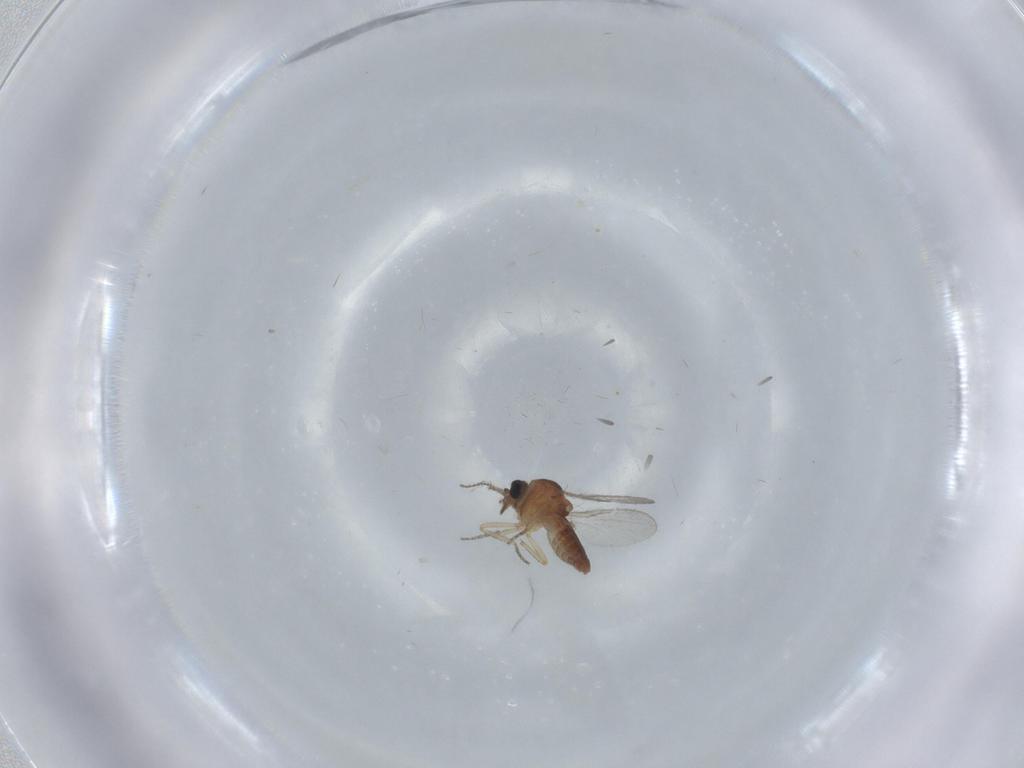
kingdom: Animalia
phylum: Arthropoda
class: Insecta
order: Diptera
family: Ceratopogonidae
